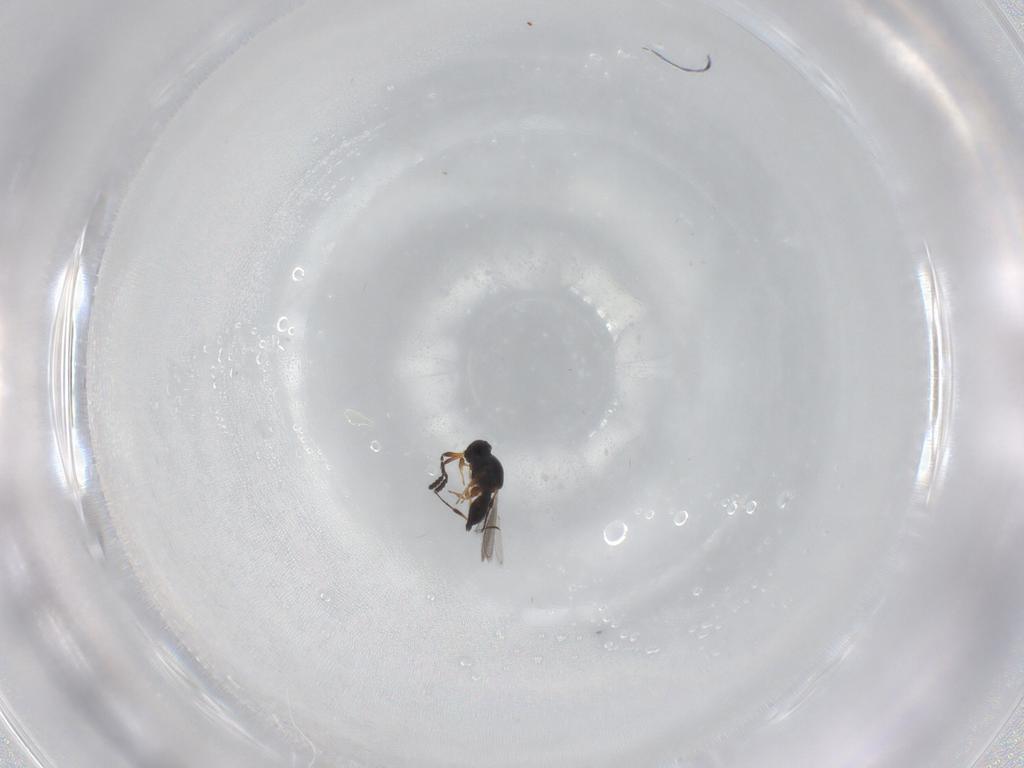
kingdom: Animalia
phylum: Arthropoda
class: Insecta
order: Hymenoptera
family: Platygastridae
